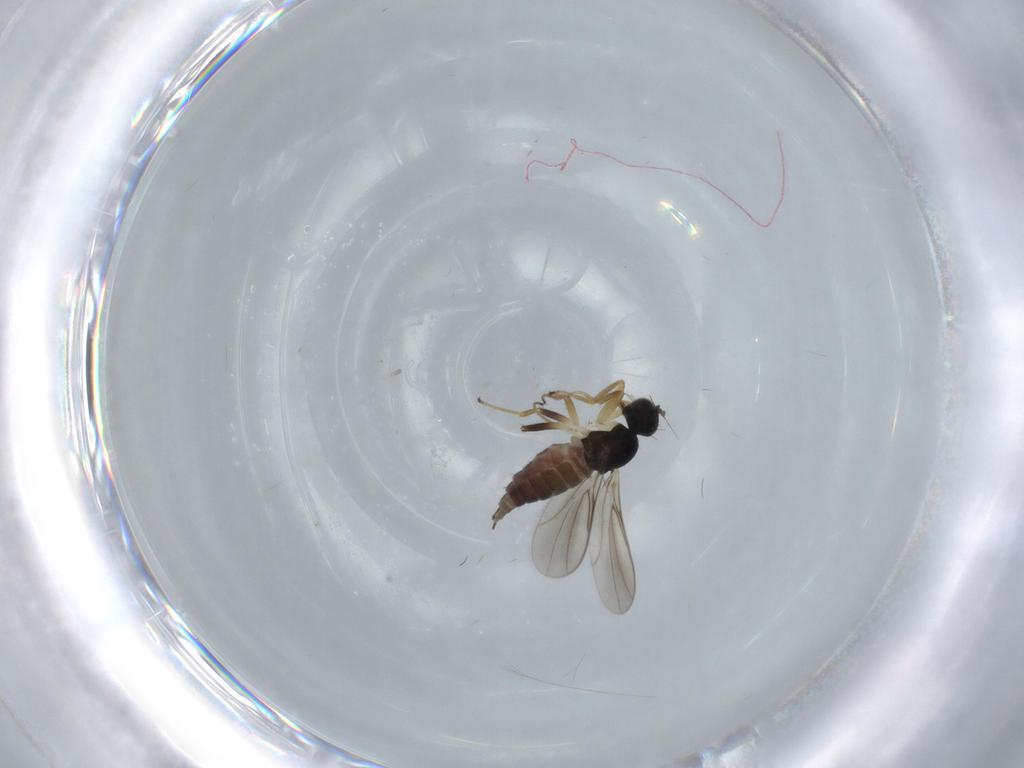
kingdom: Animalia
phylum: Arthropoda
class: Insecta
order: Diptera
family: Hybotidae
